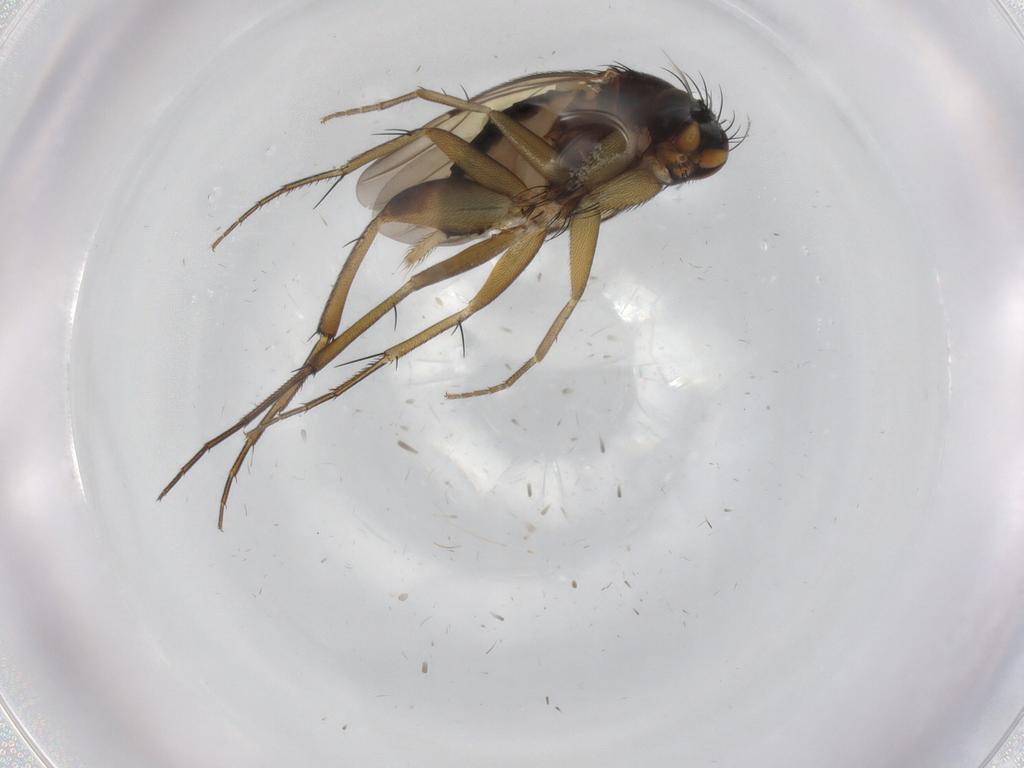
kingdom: Animalia
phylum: Arthropoda
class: Insecta
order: Diptera
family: Phoridae
